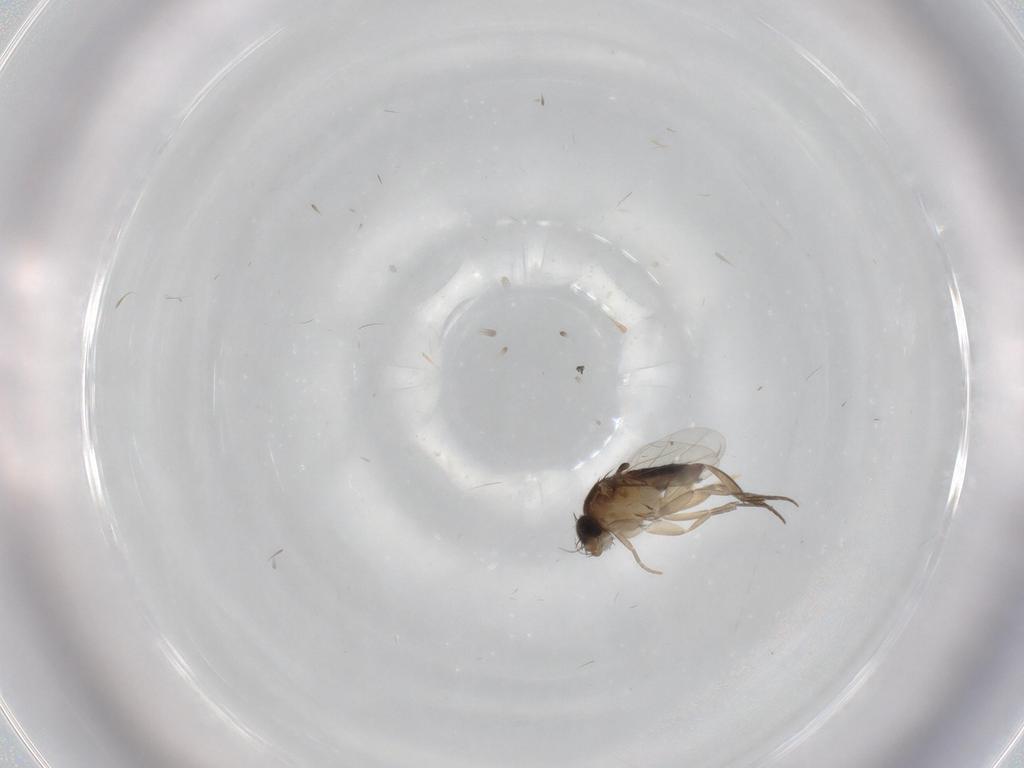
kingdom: Animalia
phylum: Arthropoda
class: Insecta
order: Diptera
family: Phoridae
